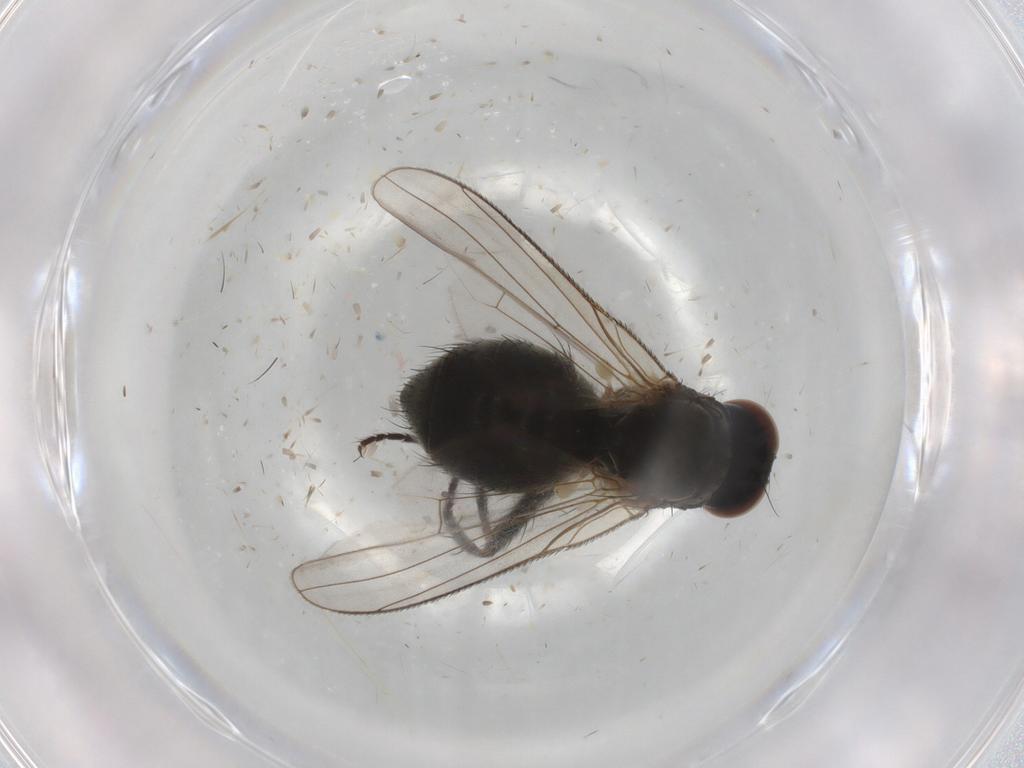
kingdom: Animalia
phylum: Arthropoda
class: Insecta
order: Diptera
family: Muscidae
